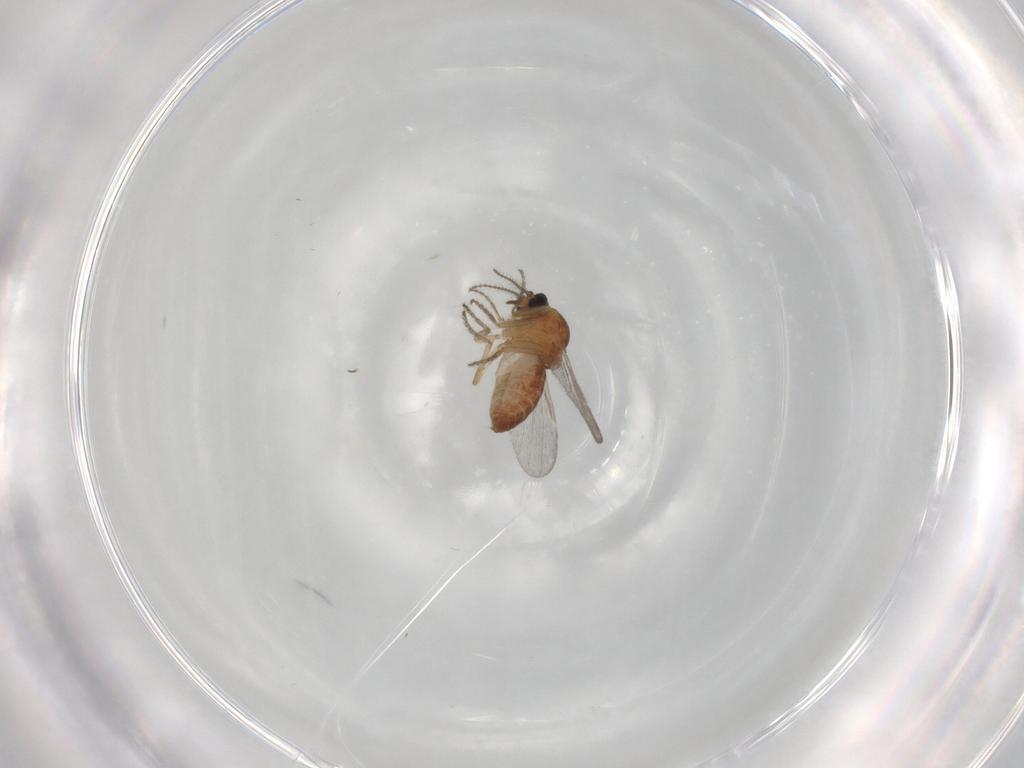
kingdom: Animalia
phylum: Arthropoda
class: Insecta
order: Diptera
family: Ceratopogonidae
